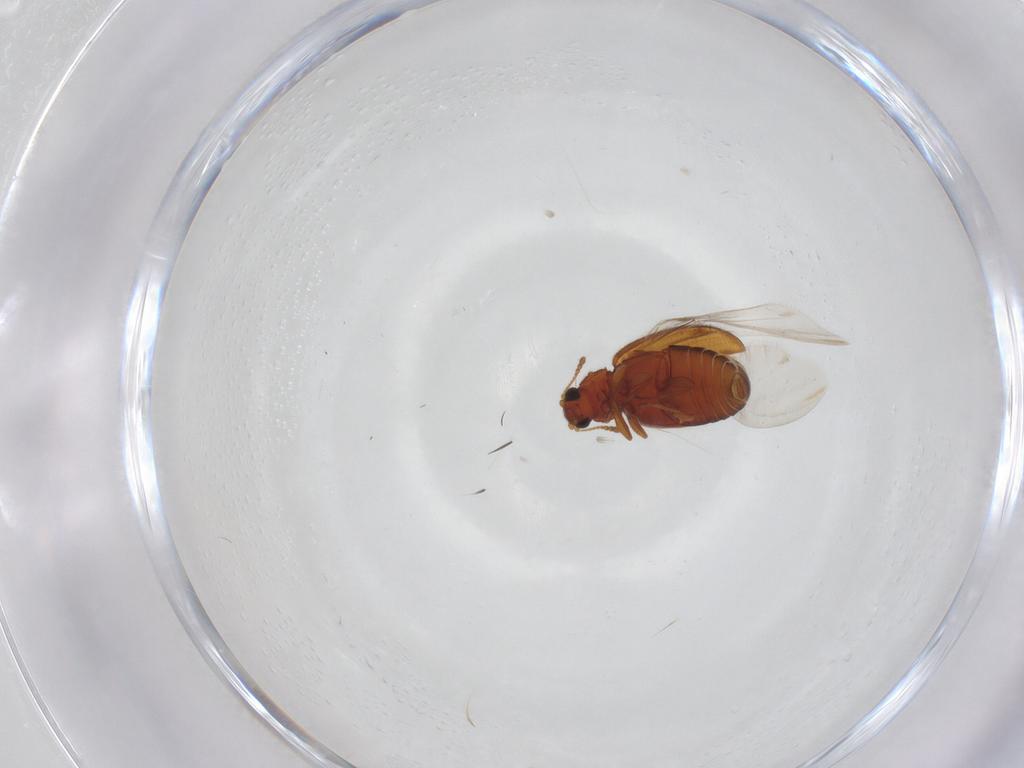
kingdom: Animalia
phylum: Arthropoda
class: Insecta
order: Coleoptera
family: Latridiidae
